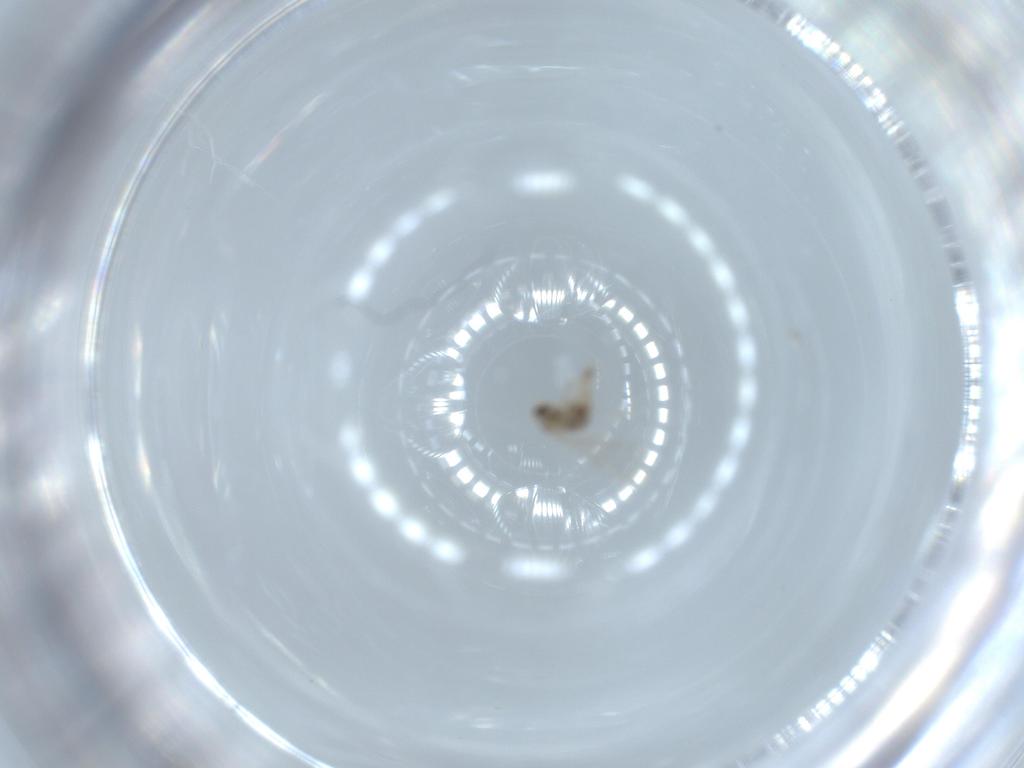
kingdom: Animalia
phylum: Arthropoda
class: Insecta
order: Diptera
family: Cecidomyiidae
